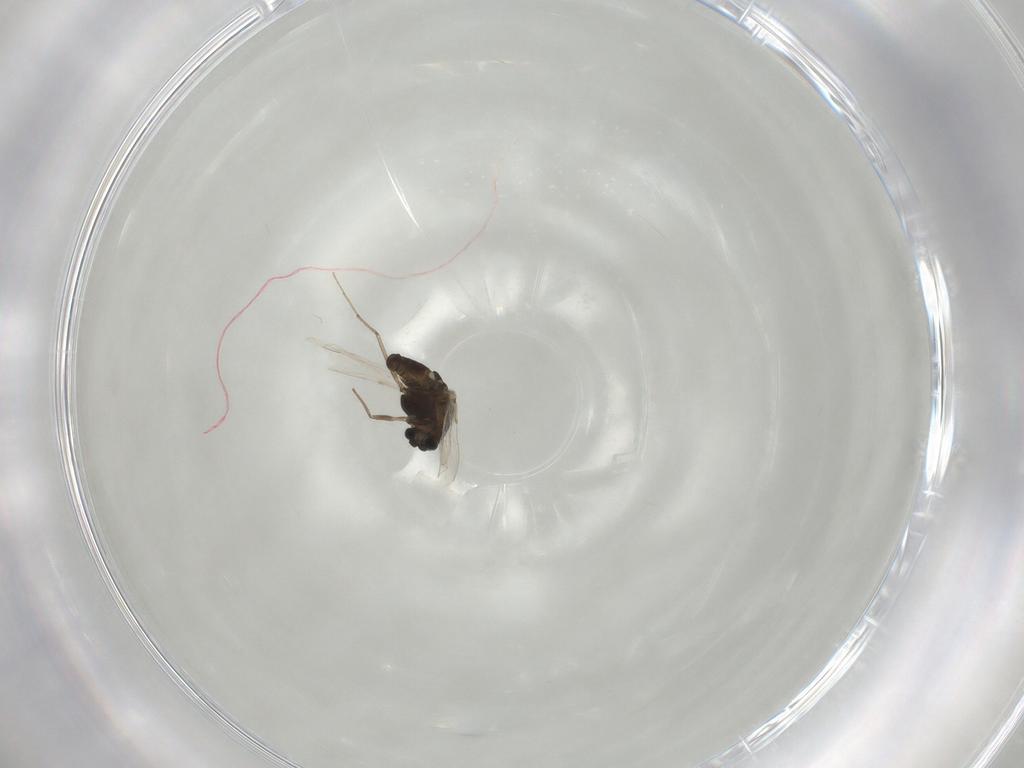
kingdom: Animalia
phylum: Arthropoda
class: Insecta
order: Diptera
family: Chironomidae
